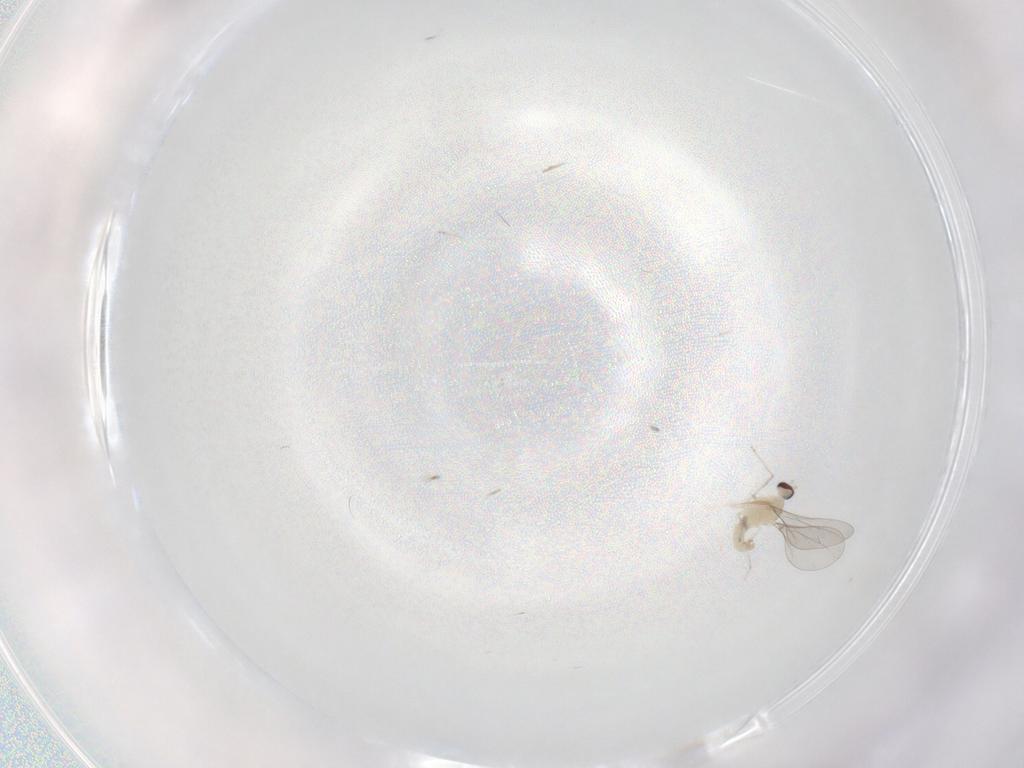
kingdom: Animalia
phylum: Arthropoda
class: Insecta
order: Diptera
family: Cecidomyiidae
